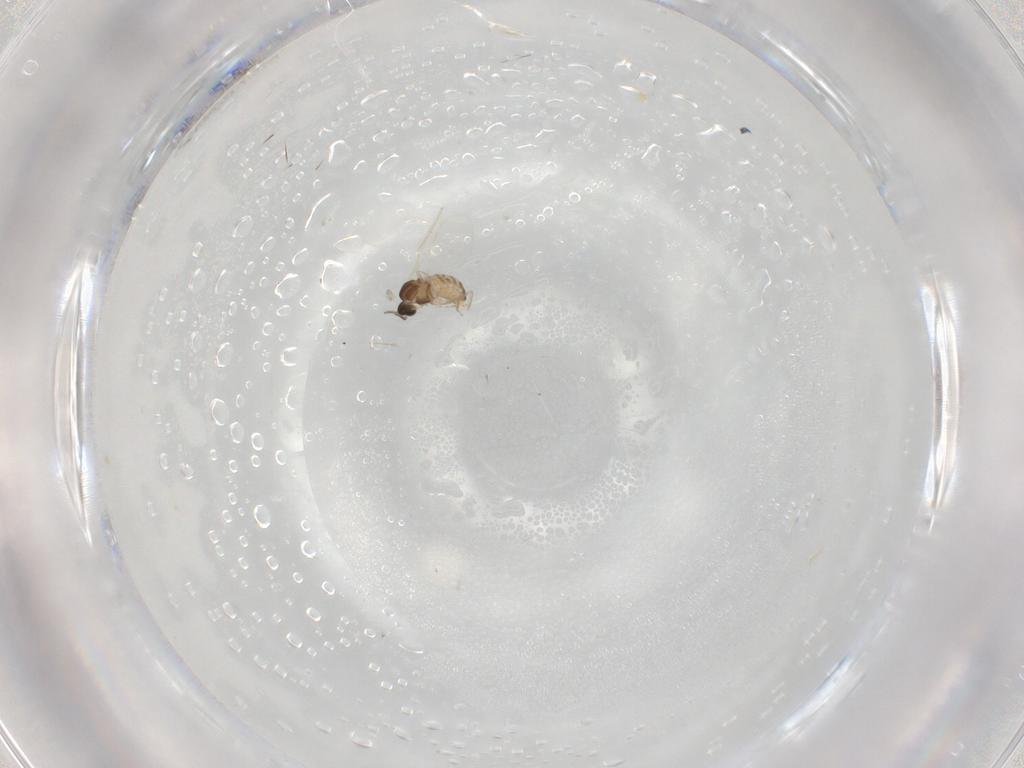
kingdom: Animalia
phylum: Arthropoda
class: Insecta
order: Diptera
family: Cecidomyiidae
